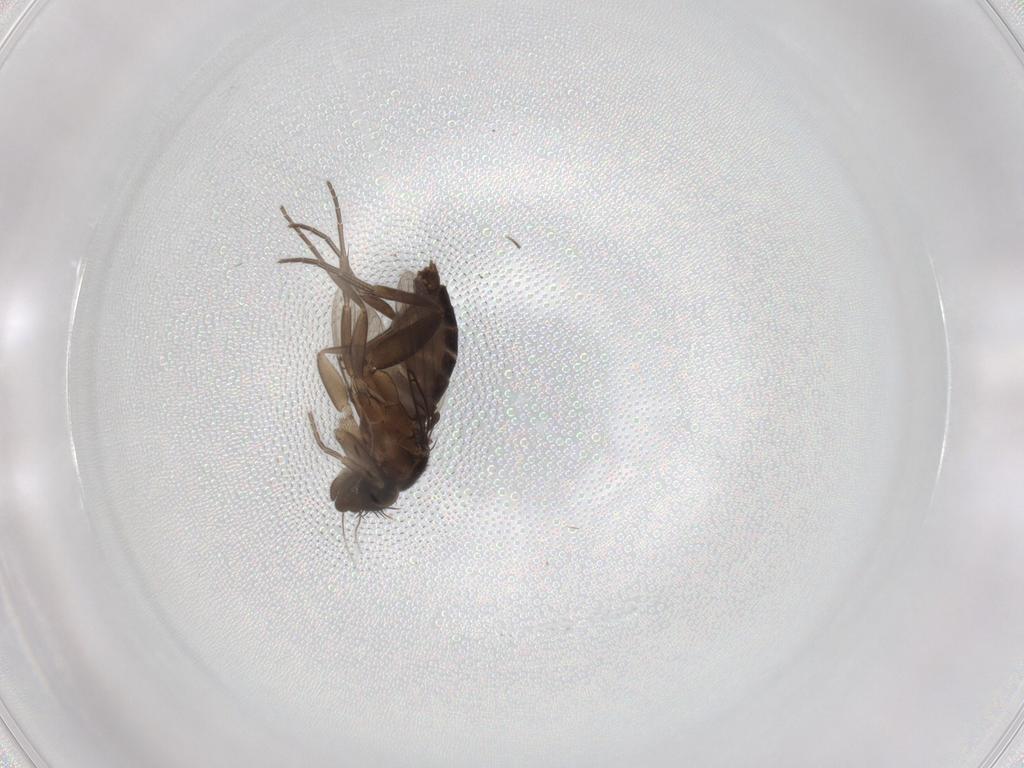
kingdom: Animalia
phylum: Arthropoda
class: Insecta
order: Diptera
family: Phoridae
